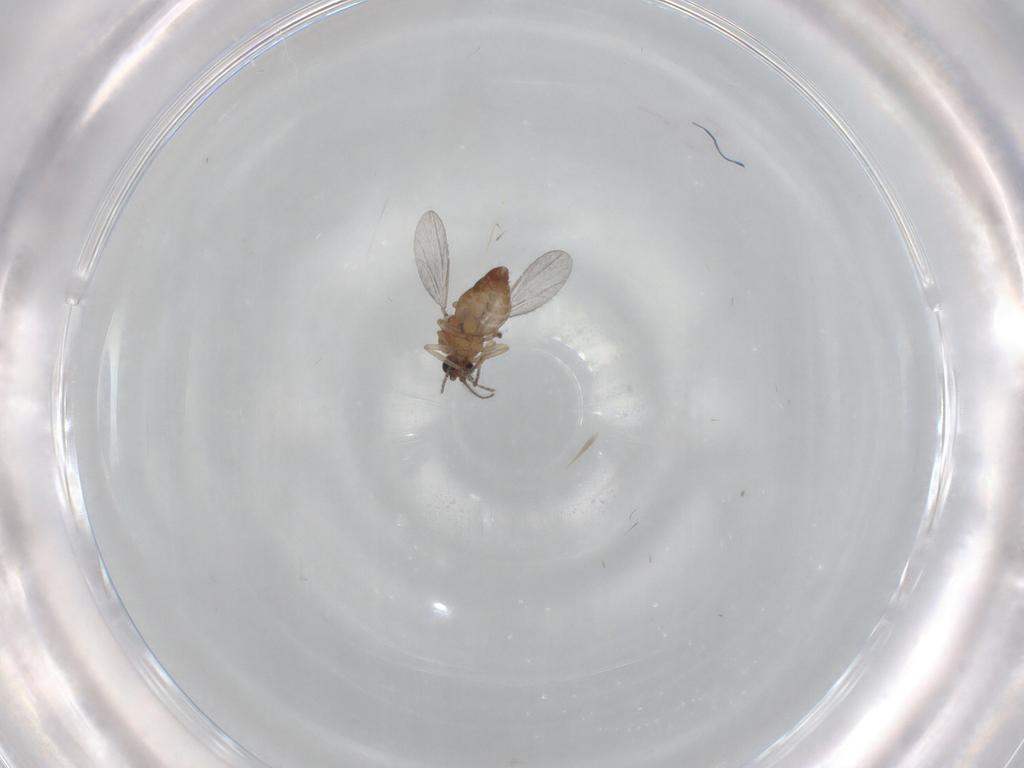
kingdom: Animalia
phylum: Arthropoda
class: Insecta
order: Diptera
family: Ceratopogonidae
